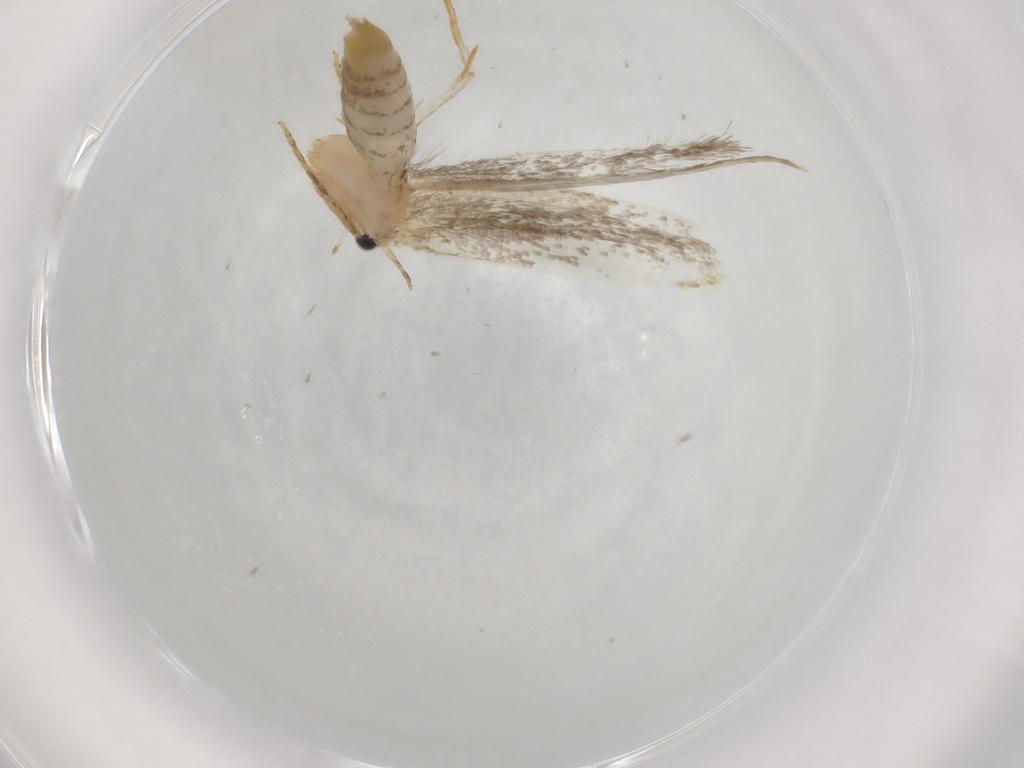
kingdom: Animalia
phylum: Arthropoda
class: Insecta
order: Lepidoptera
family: Tineidae
